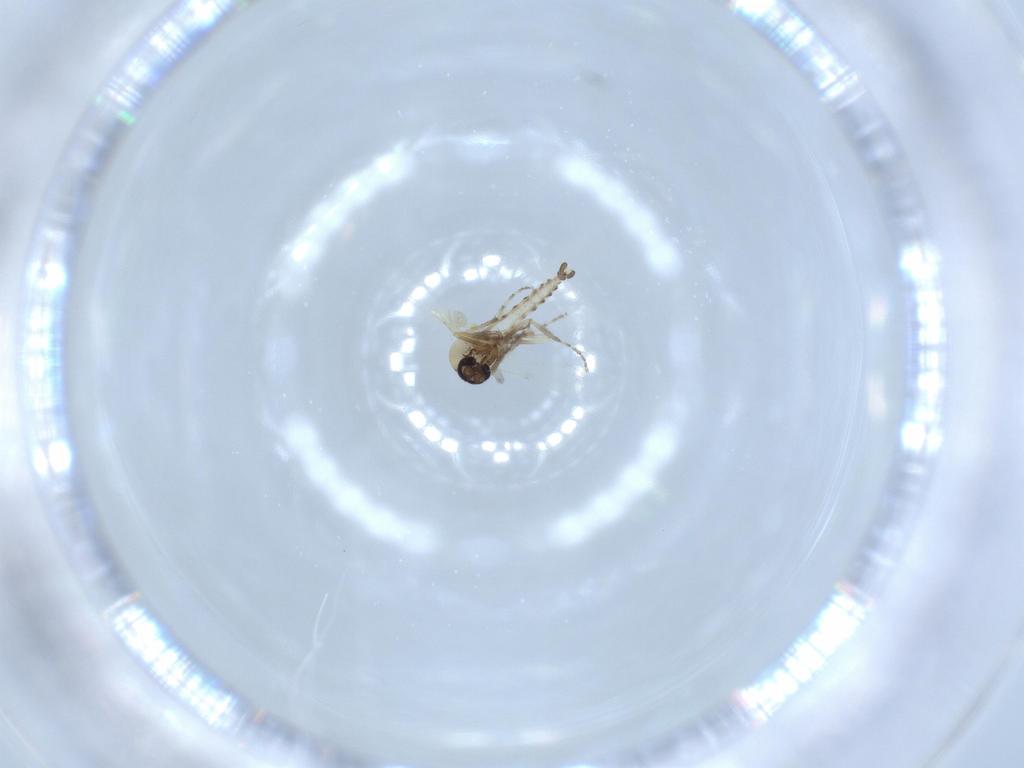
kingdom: Animalia
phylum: Arthropoda
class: Insecta
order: Diptera
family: Ceratopogonidae
